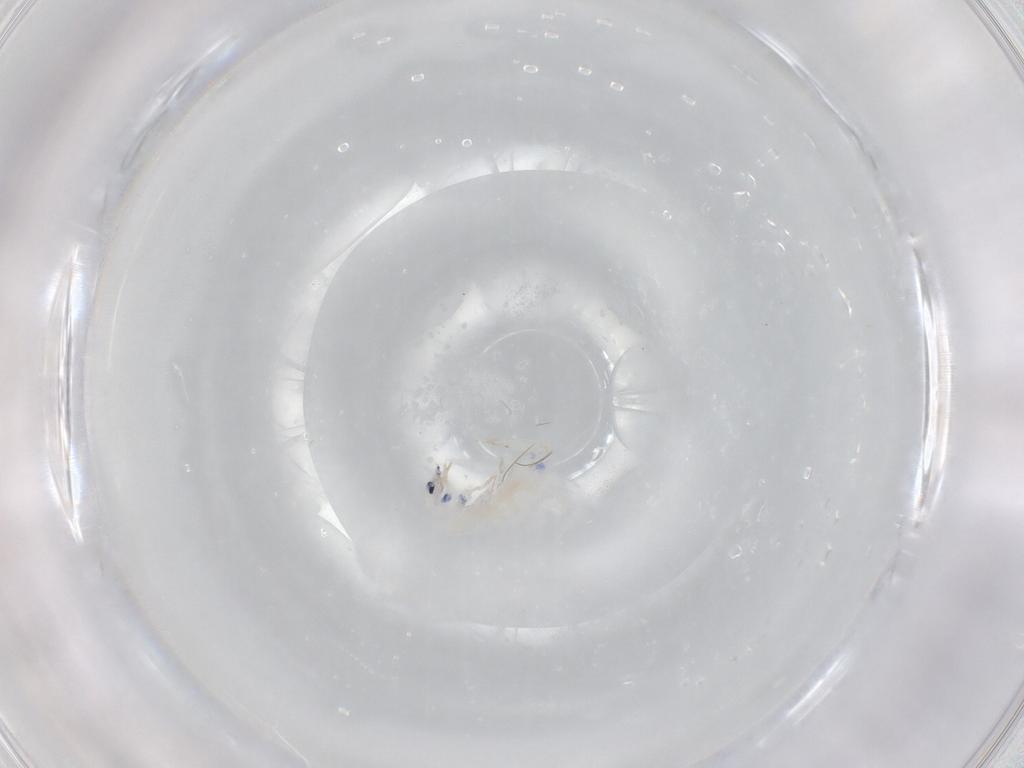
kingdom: Animalia
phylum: Arthropoda
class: Collembola
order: Entomobryomorpha
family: Entomobryidae
